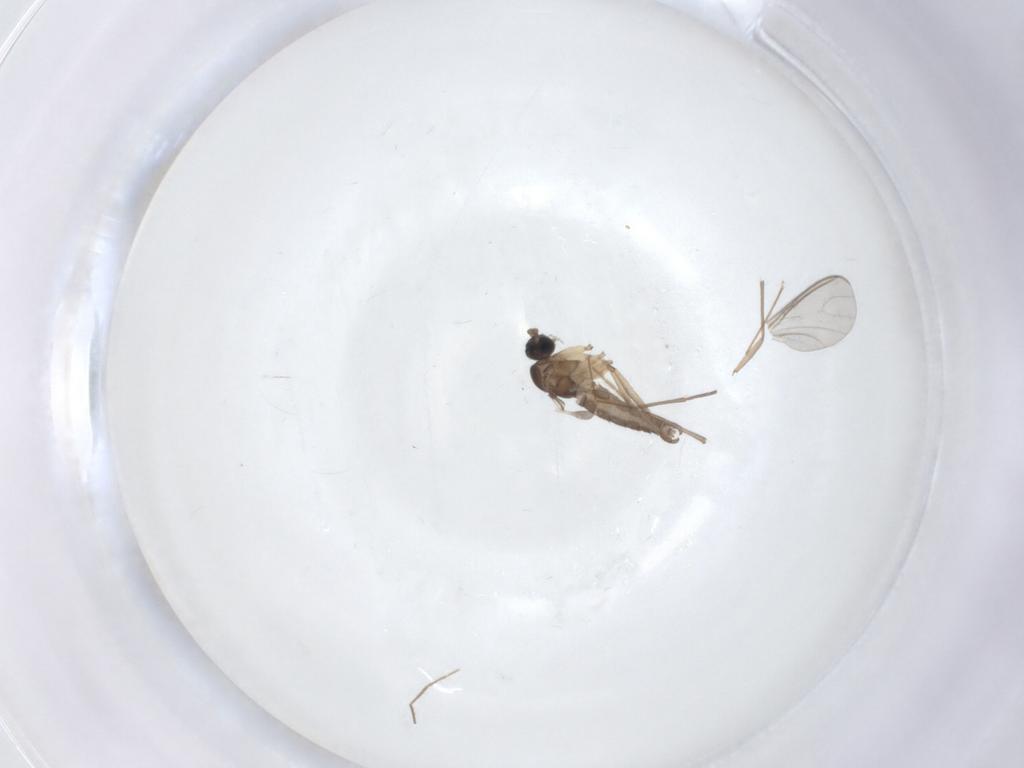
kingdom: Animalia
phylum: Arthropoda
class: Insecta
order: Diptera
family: Sciaridae
